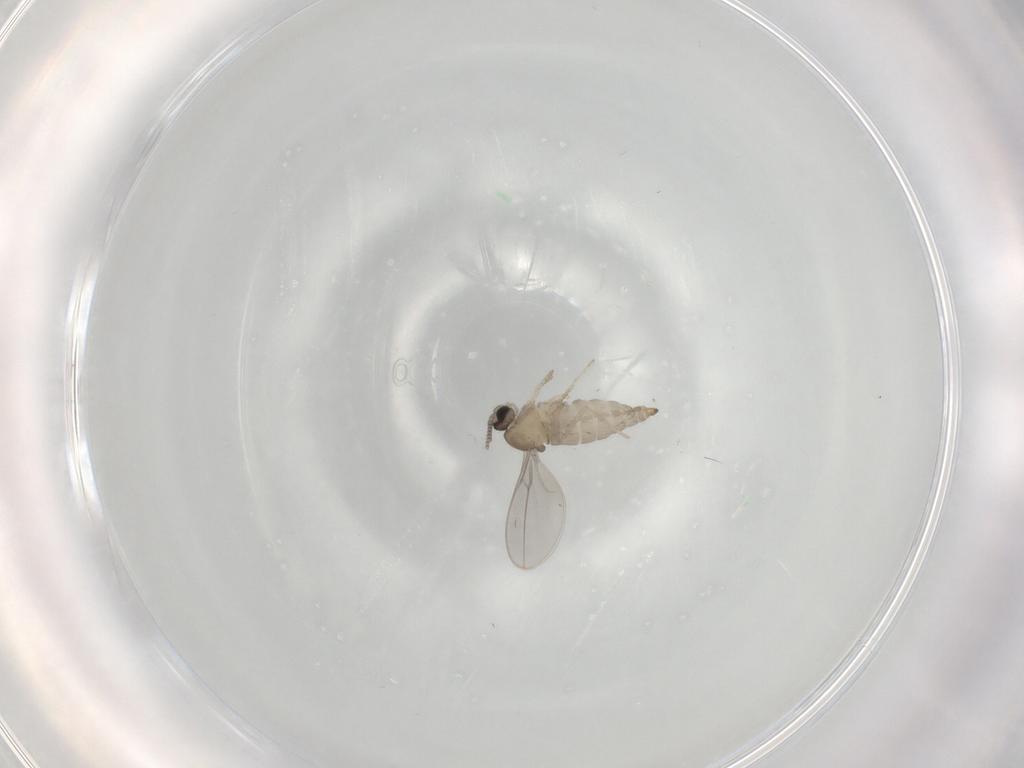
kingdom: Animalia
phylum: Arthropoda
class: Insecta
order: Diptera
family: Cecidomyiidae
